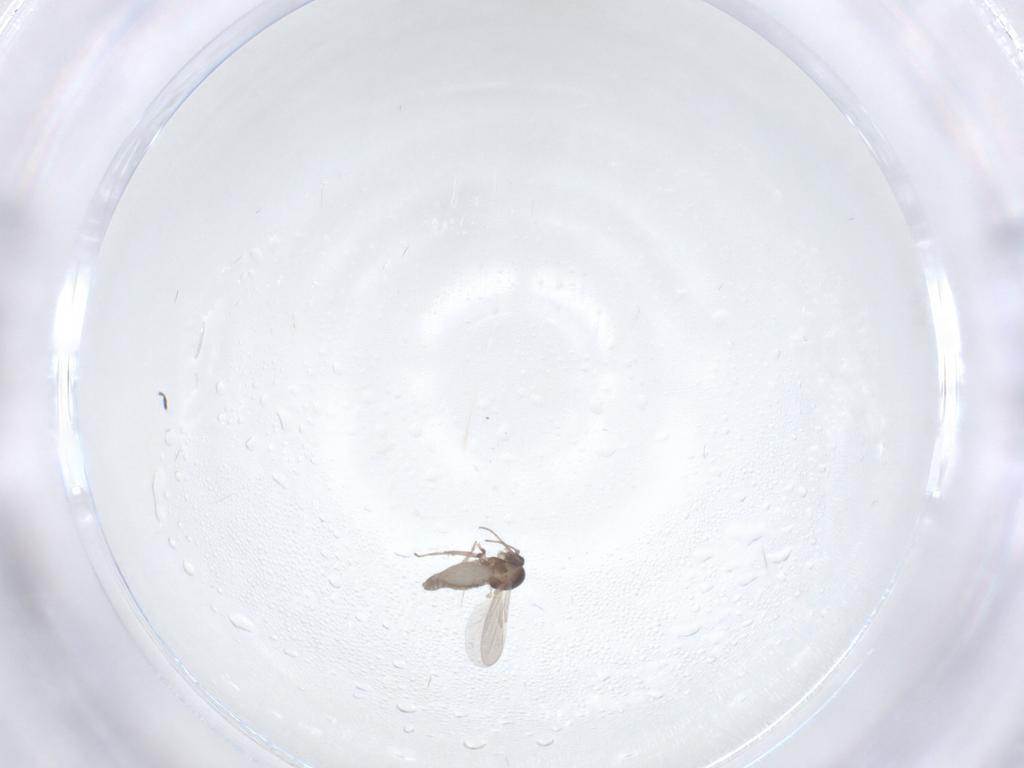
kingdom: Animalia
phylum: Arthropoda
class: Insecta
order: Diptera
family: Ceratopogonidae
